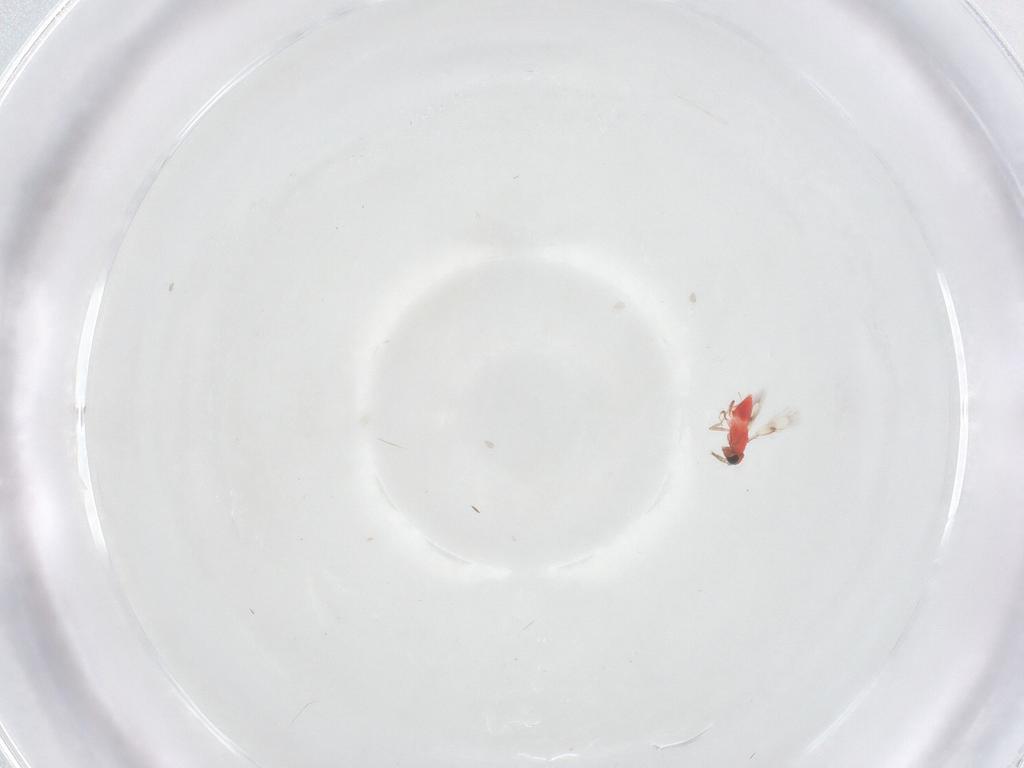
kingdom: Animalia
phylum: Arthropoda
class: Insecta
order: Hymenoptera
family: Trichogrammatidae
